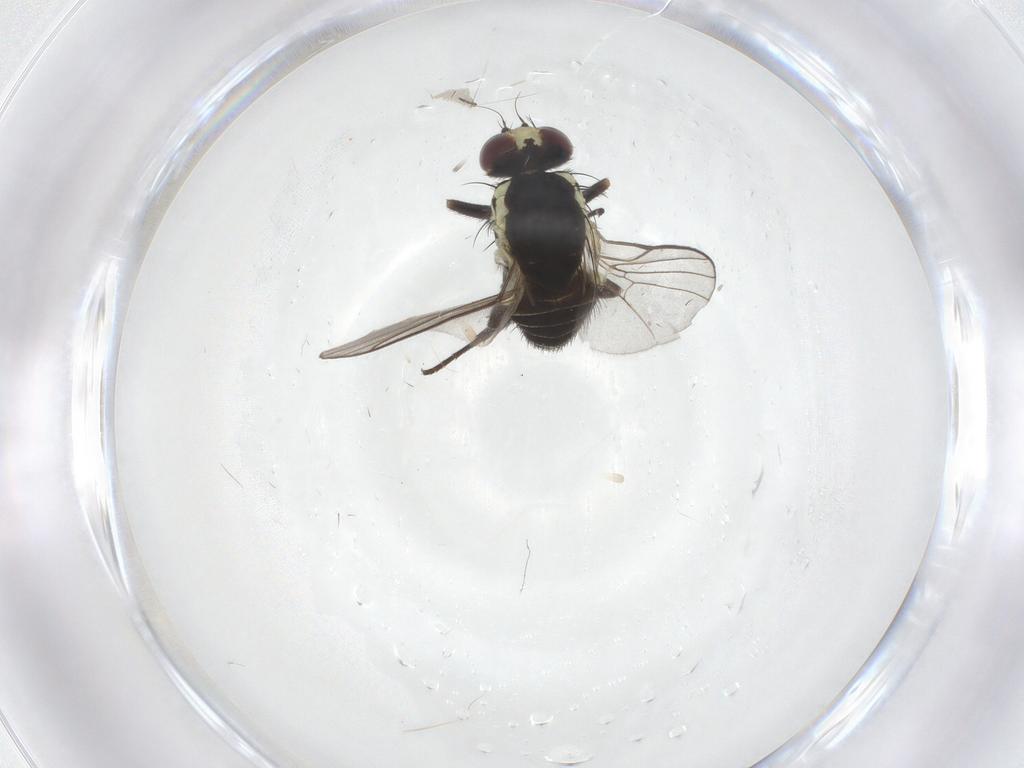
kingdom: Animalia
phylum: Arthropoda
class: Insecta
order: Diptera
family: Agromyzidae
